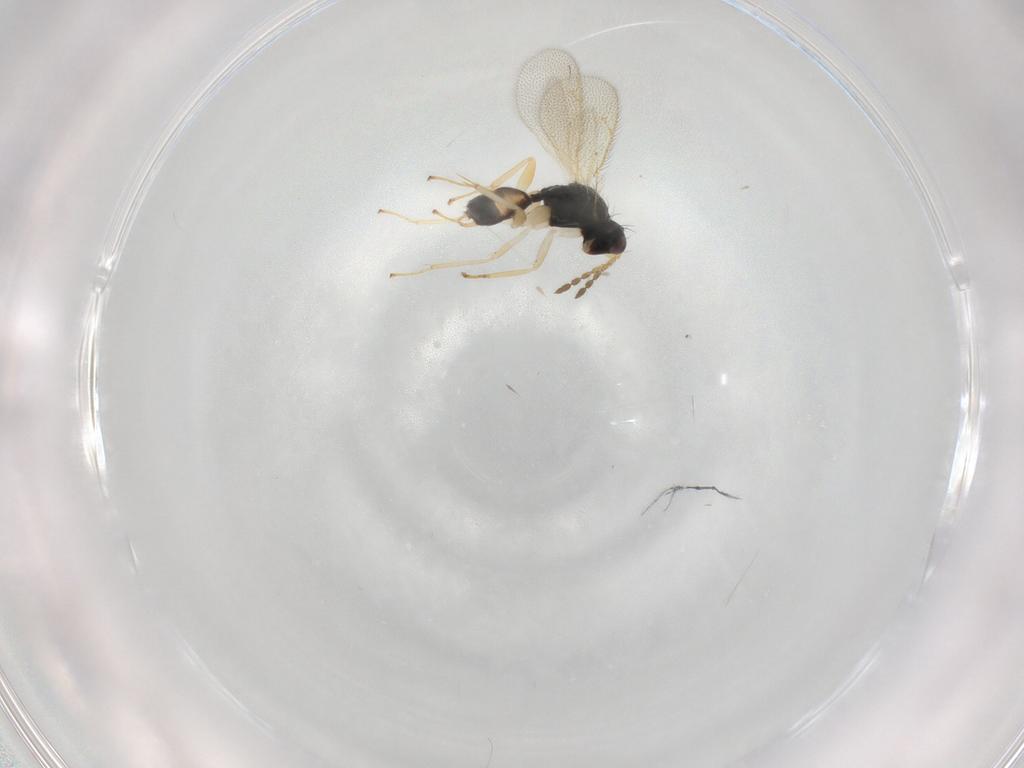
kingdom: Animalia
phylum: Arthropoda
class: Insecta
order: Hymenoptera
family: Eulophidae
